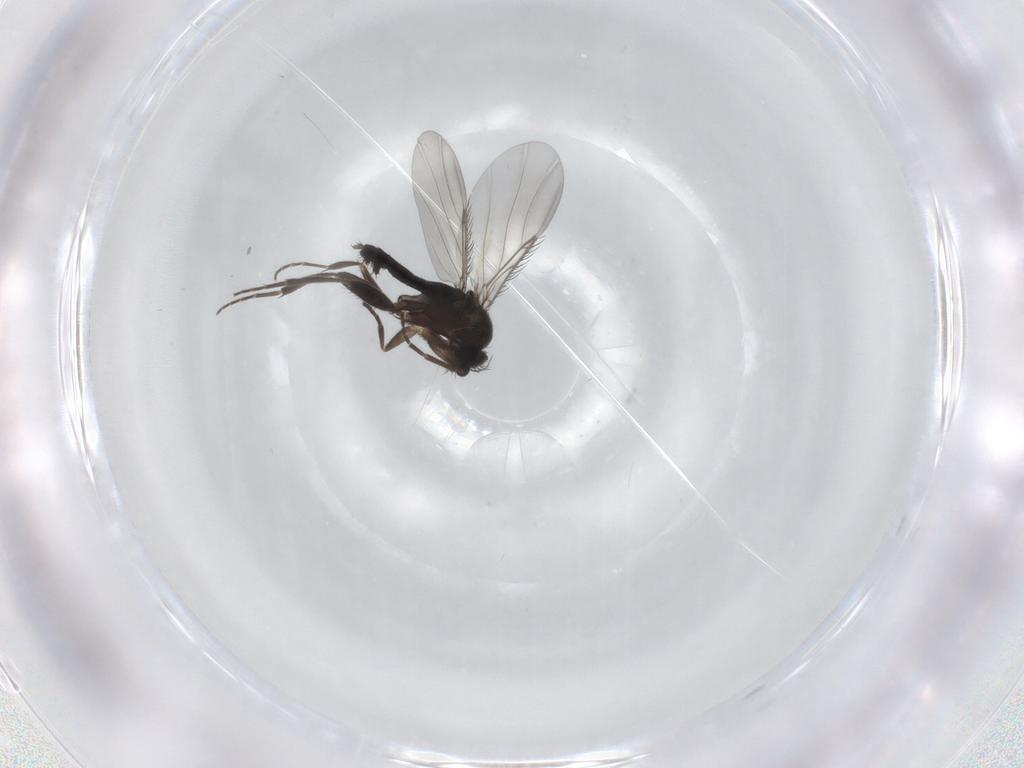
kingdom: Animalia
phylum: Arthropoda
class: Insecta
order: Diptera
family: Phoridae
